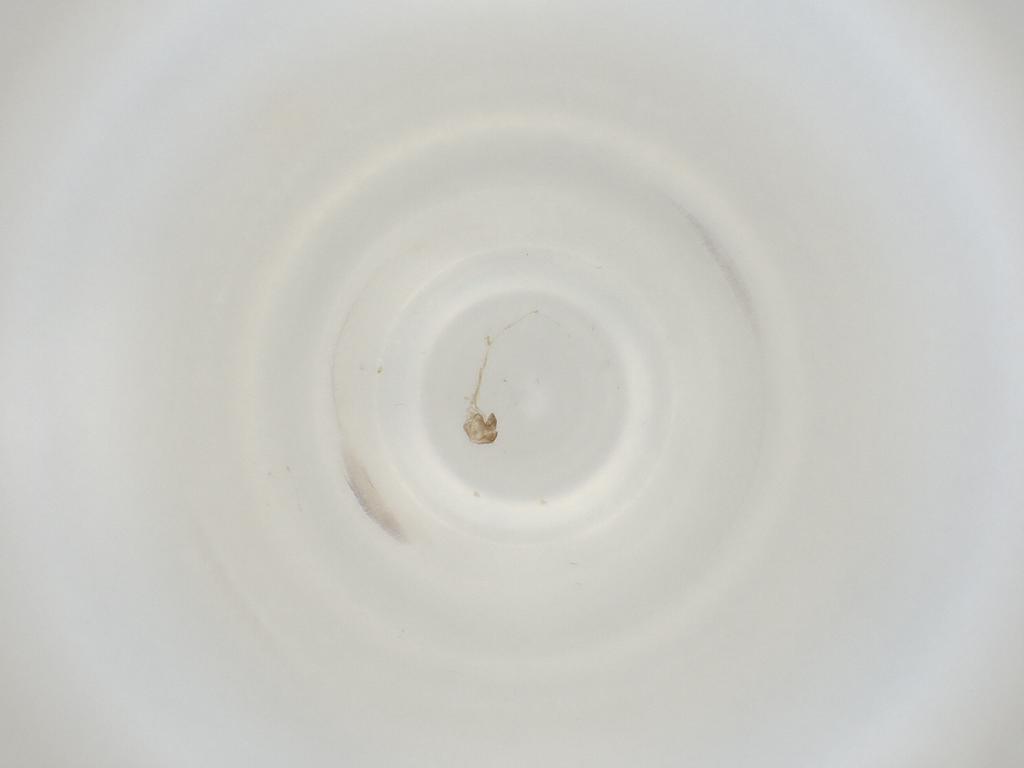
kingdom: Animalia
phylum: Arthropoda
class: Insecta
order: Diptera
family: Cecidomyiidae
